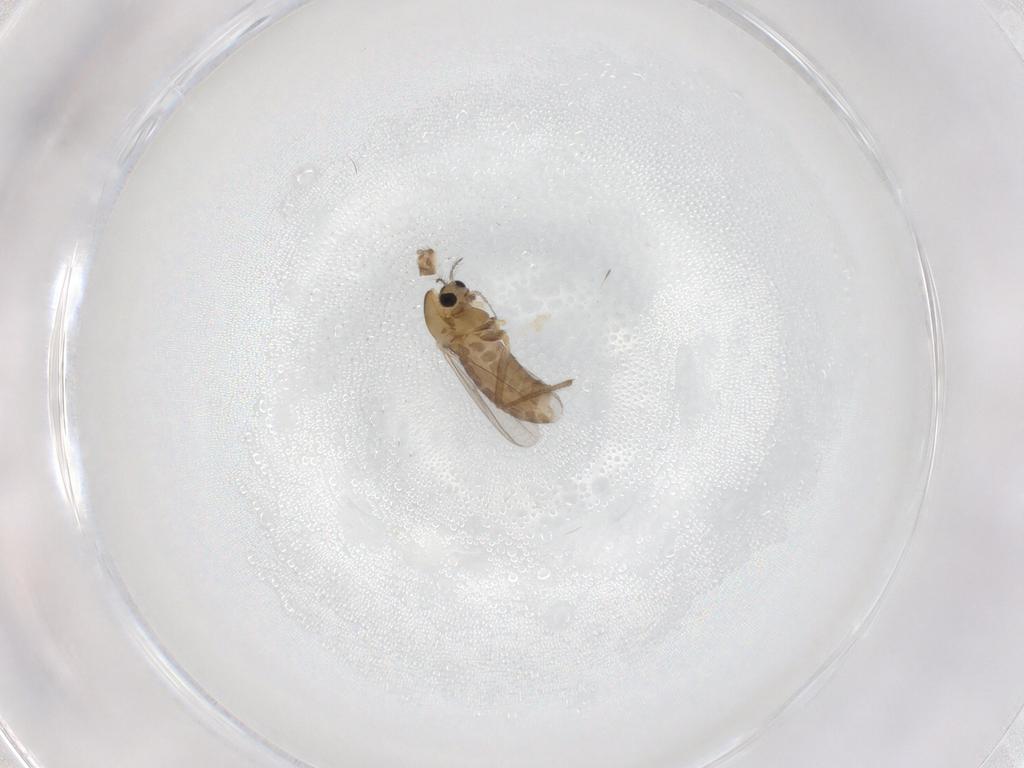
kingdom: Animalia
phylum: Arthropoda
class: Insecta
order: Diptera
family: Chironomidae
